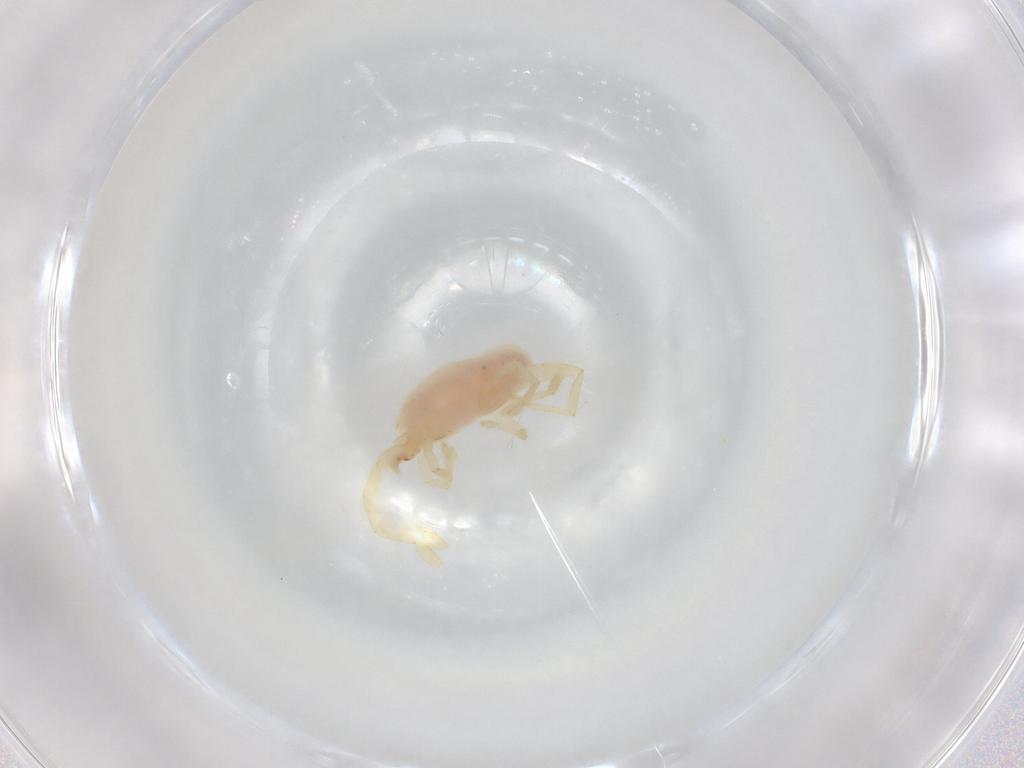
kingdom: Animalia
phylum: Arthropoda
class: Arachnida
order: Trombidiformes
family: Erythraeidae
